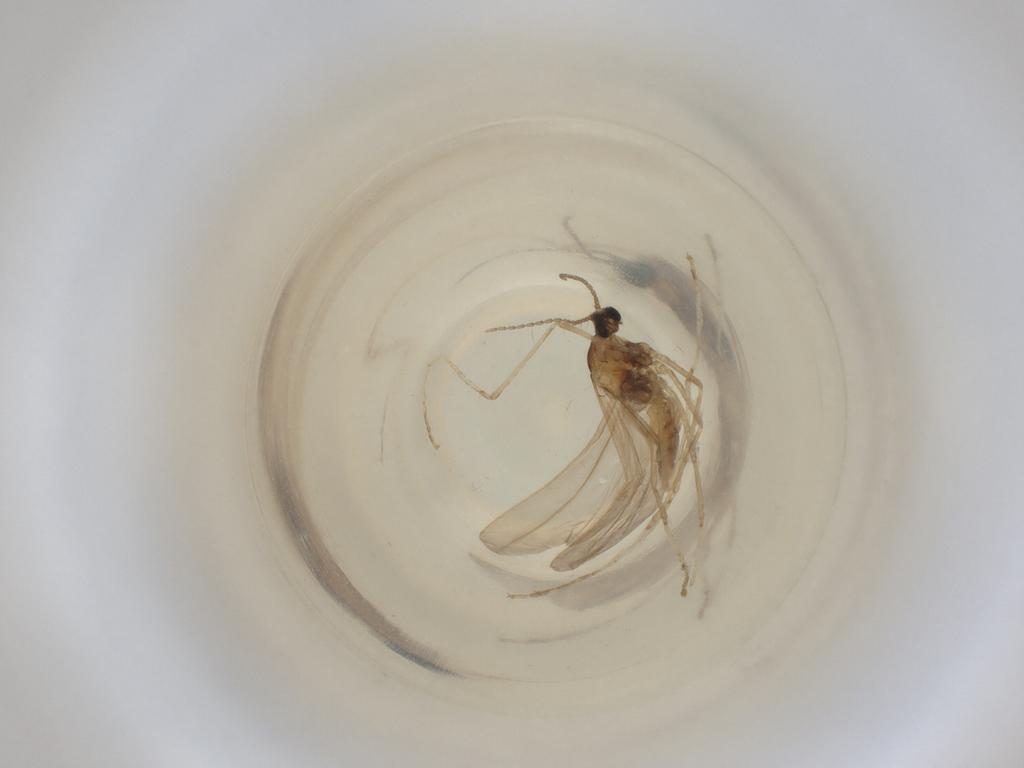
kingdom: Animalia
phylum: Arthropoda
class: Insecta
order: Diptera
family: Cecidomyiidae
